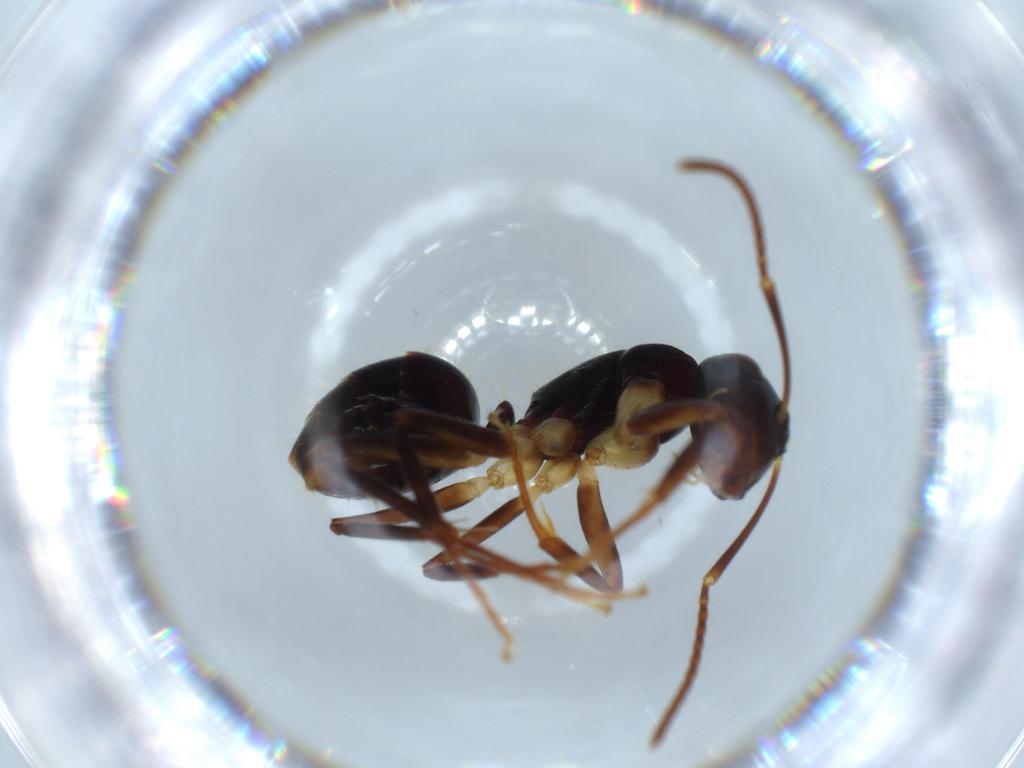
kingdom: Animalia
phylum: Arthropoda
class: Insecta
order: Hymenoptera
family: Formicidae
